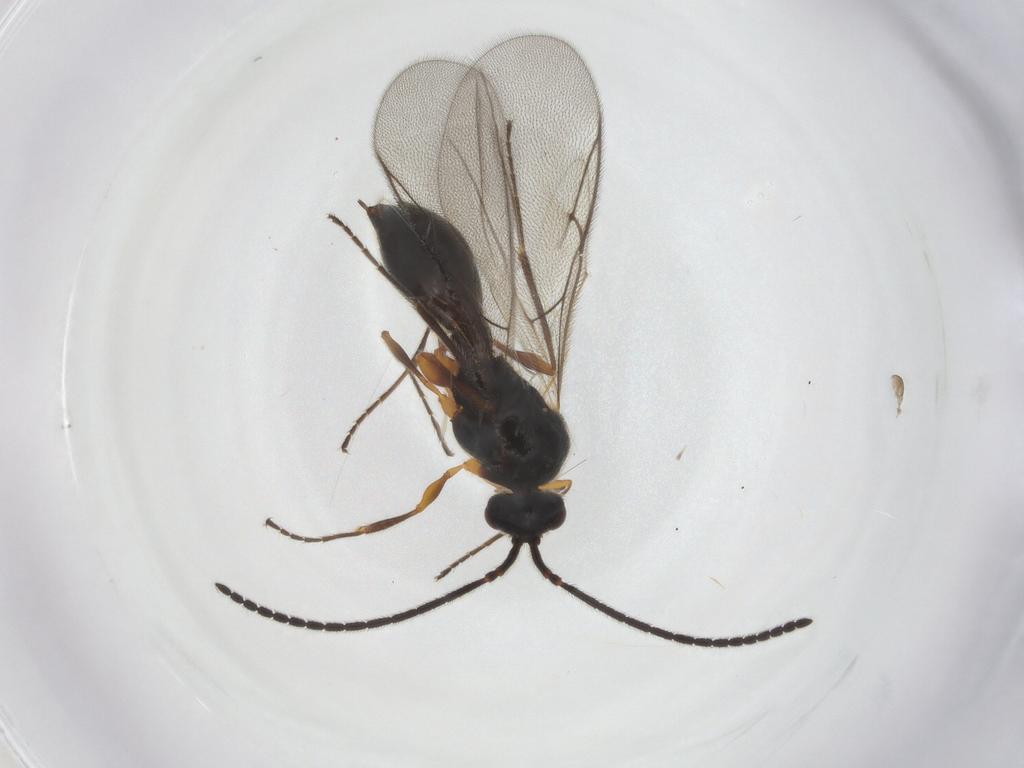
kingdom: Animalia
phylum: Arthropoda
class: Insecta
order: Hymenoptera
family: Diapriidae
